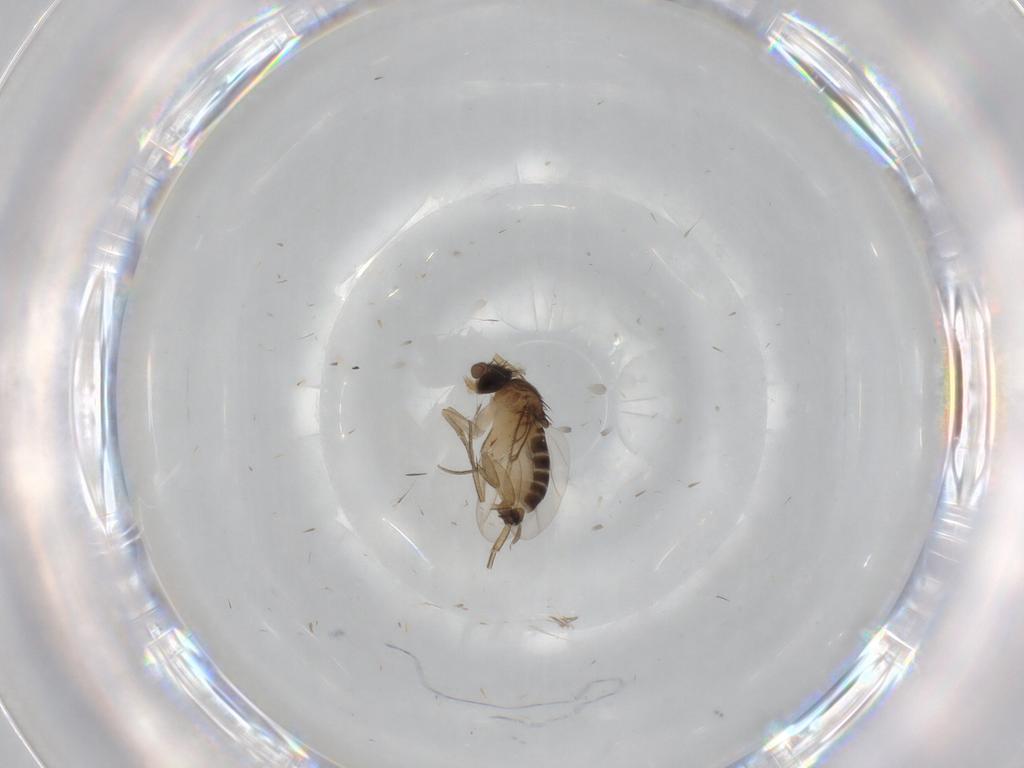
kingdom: Animalia
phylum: Arthropoda
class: Insecta
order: Diptera
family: Phoridae
